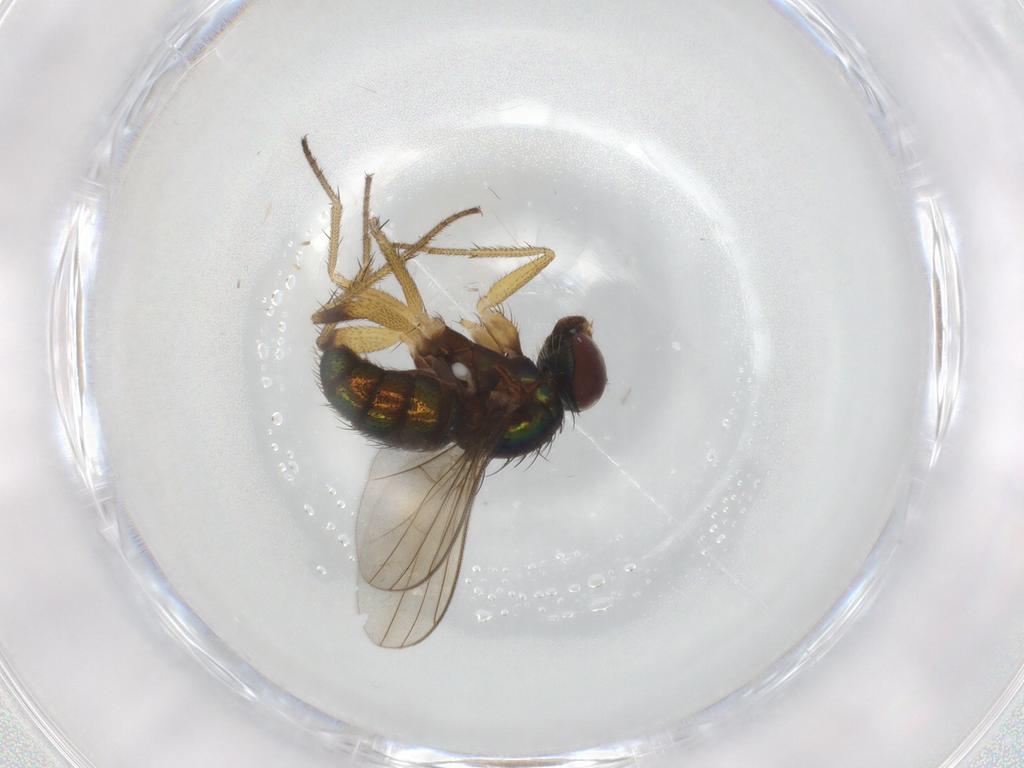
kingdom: Animalia
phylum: Arthropoda
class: Insecta
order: Diptera
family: Dolichopodidae
